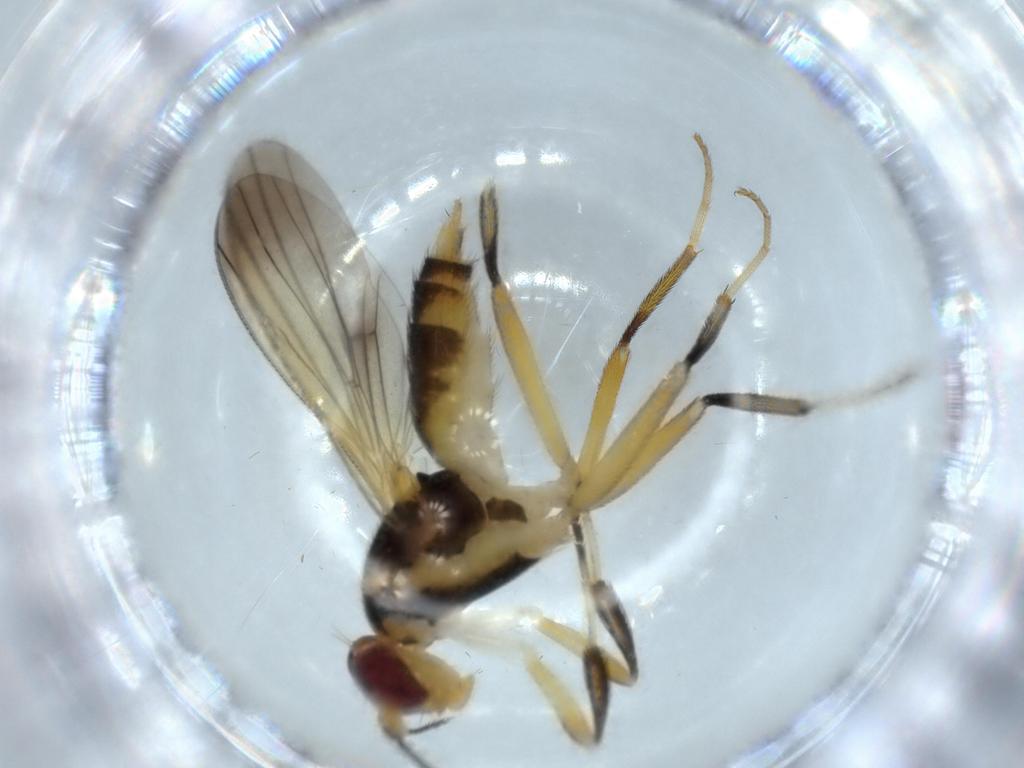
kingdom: Animalia
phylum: Arthropoda
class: Insecta
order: Diptera
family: Clusiidae
